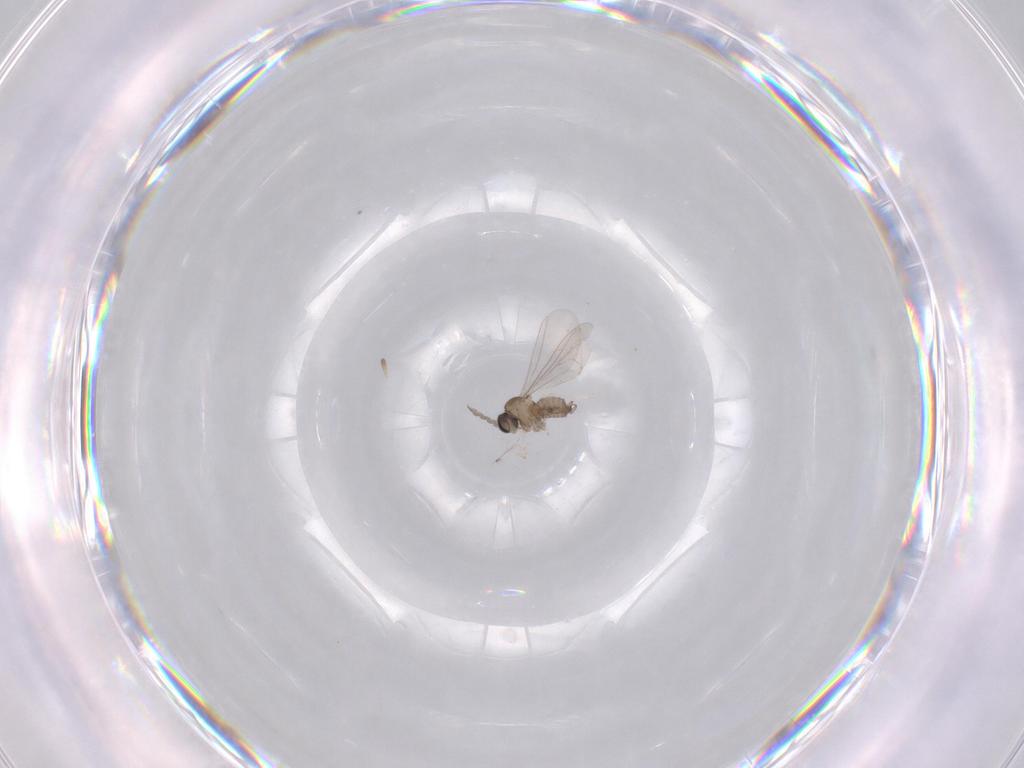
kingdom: Animalia
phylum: Arthropoda
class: Insecta
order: Diptera
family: Cecidomyiidae
